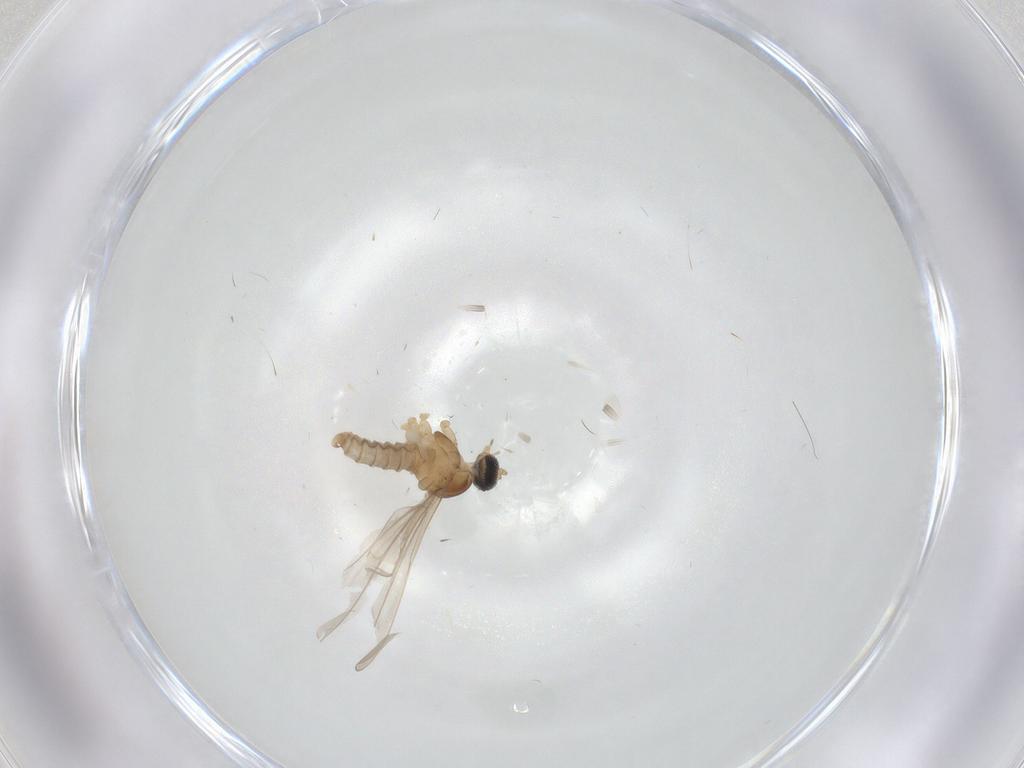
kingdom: Animalia
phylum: Arthropoda
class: Insecta
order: Diptera
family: Cecidomyiidae
